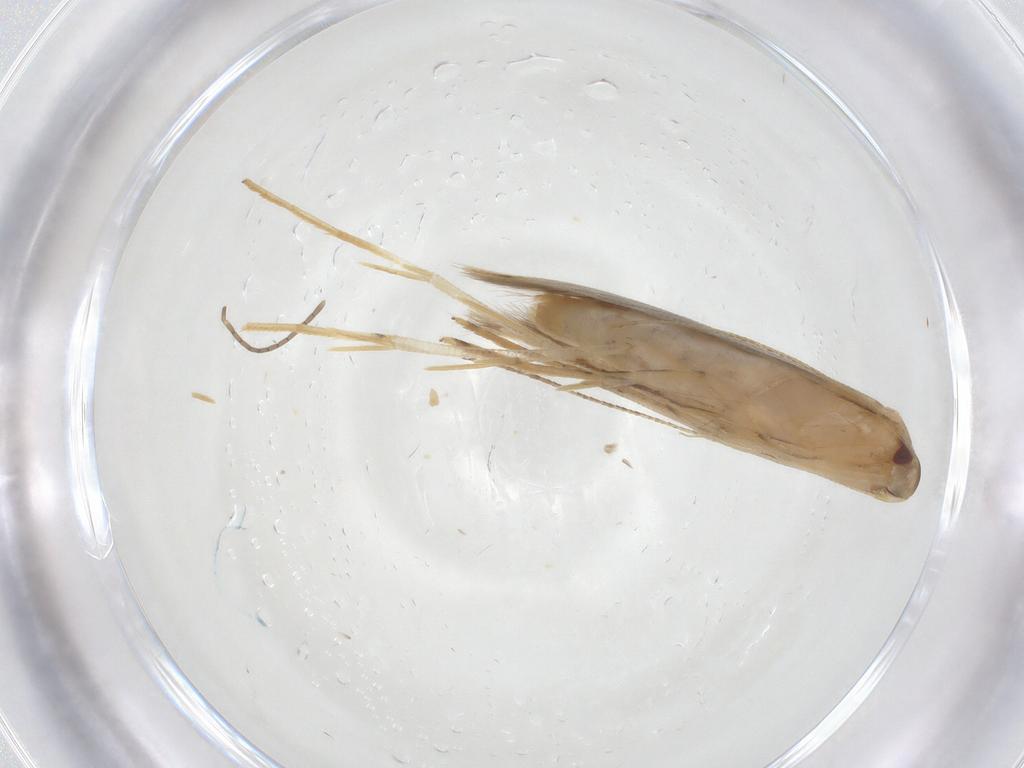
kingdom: Animalia
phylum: Arthropoda
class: Insecta
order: Lepidoptera
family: Cosmopterigidae
